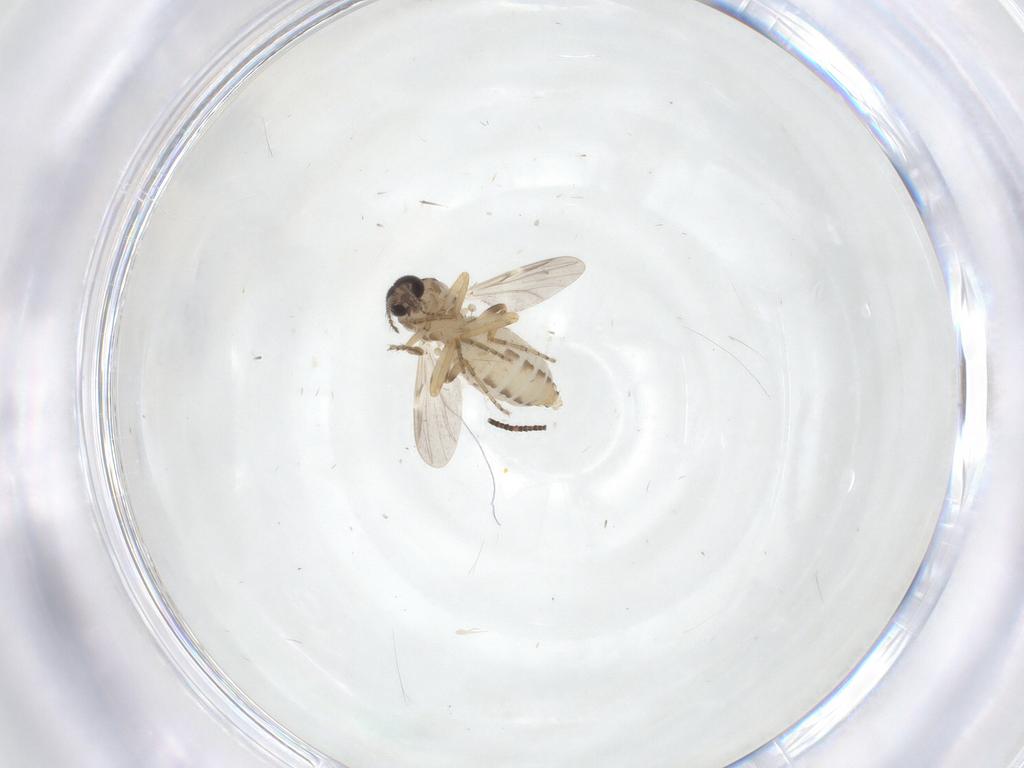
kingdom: Animalia
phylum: Arthropoda
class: Insecta
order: Diptera
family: Ceratopogonidae
